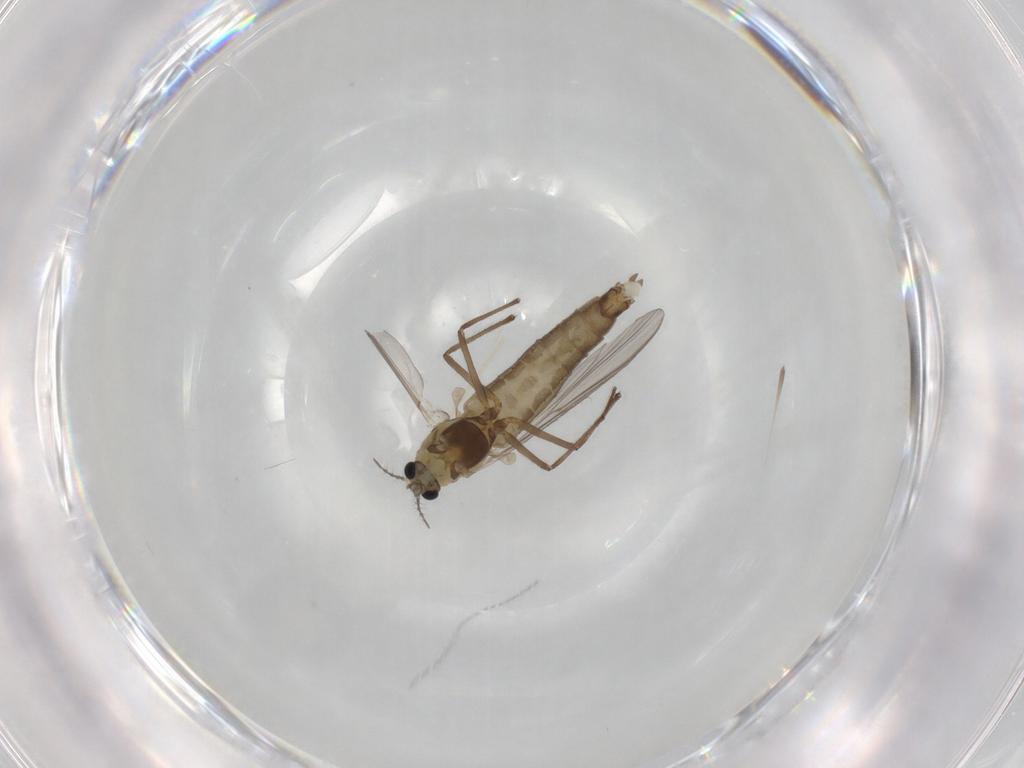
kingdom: Animalia
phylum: Arthropoda
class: Insecta
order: Diptera
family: Chironomidae
